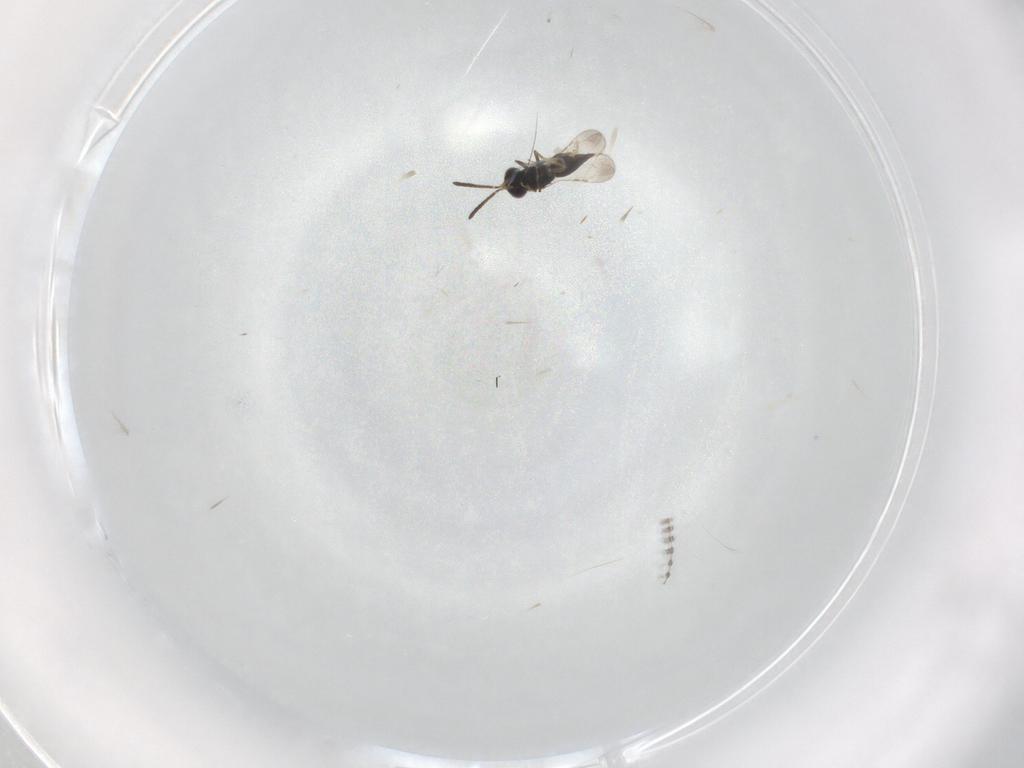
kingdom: Animalia
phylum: Arthropoda
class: Insecta
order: Hymenoptera
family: Ceraphronidae
